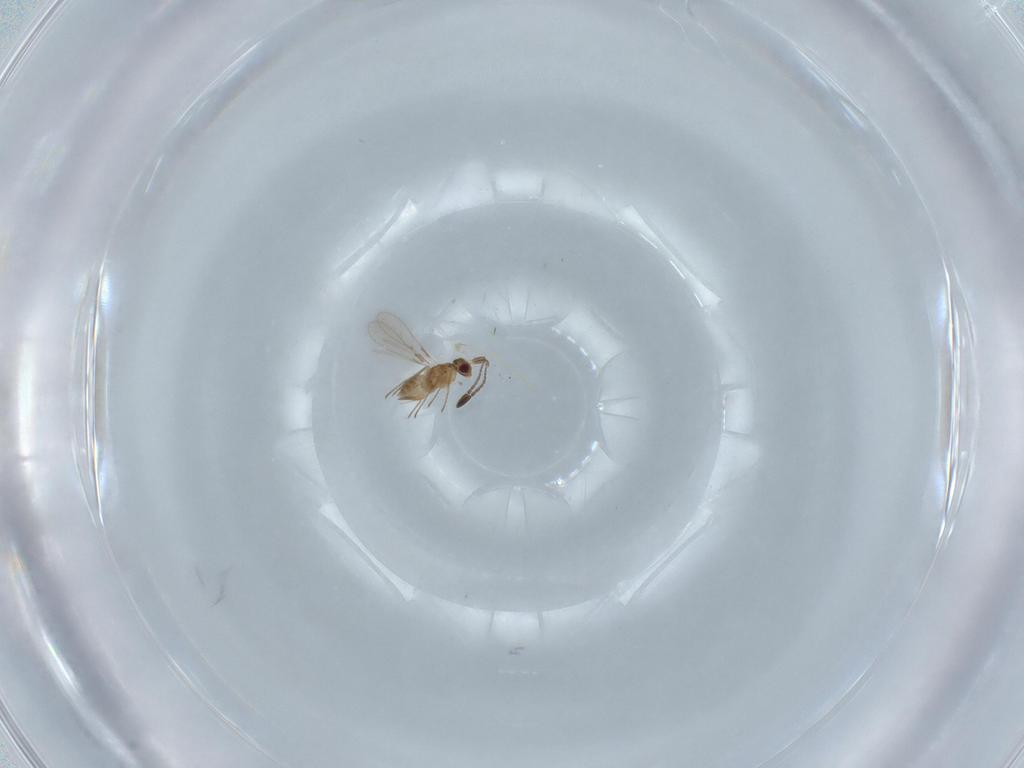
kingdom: Animalia
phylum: Arthropoda
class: Insecta
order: Hymenoptera
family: Mymaridae
